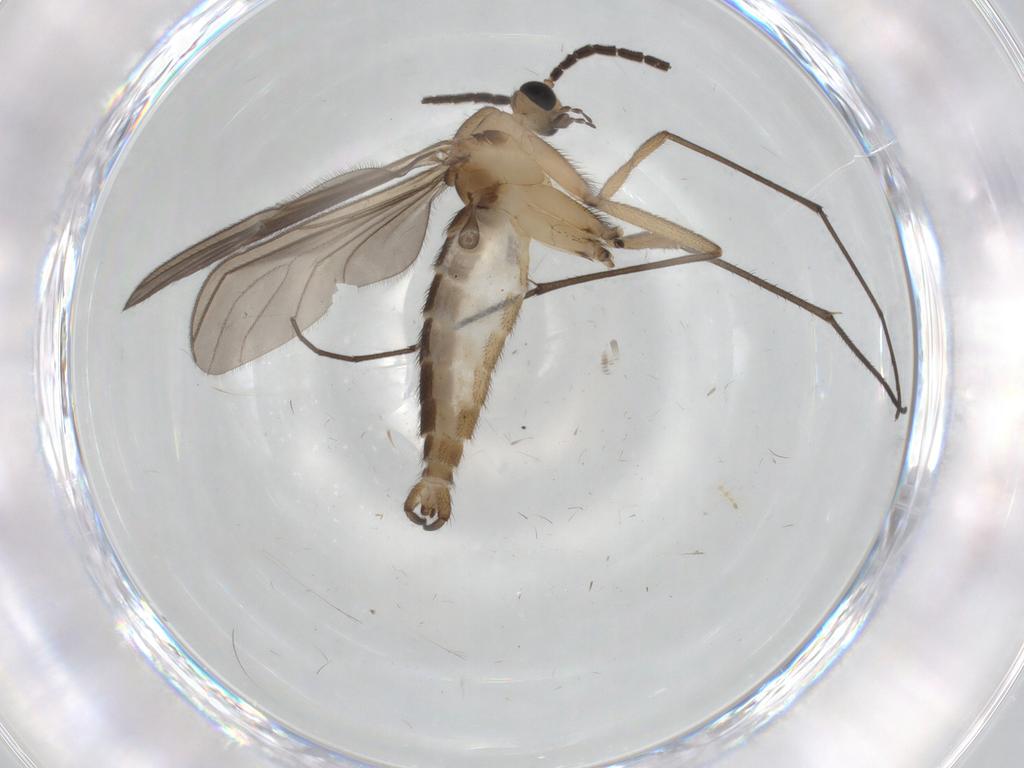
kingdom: Animalia
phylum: Arthropoda
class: Insecta
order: Diptera
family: Sciaridae
